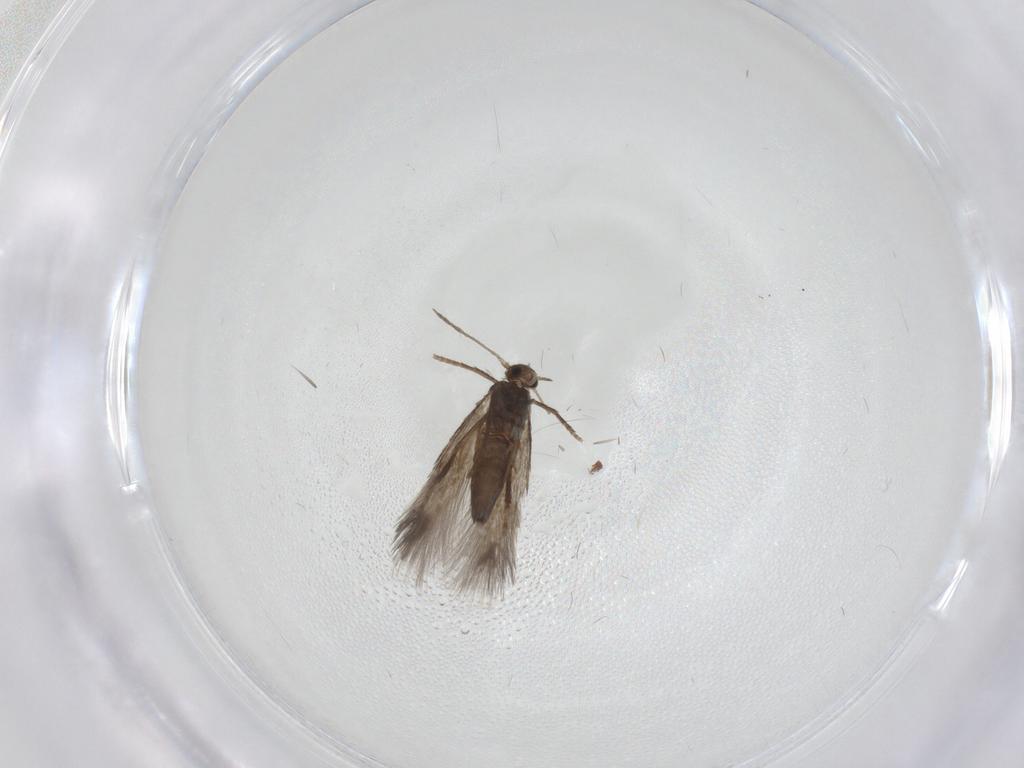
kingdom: Animalia
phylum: Arthropoda
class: Insecta
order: Lepidoptera
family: Heliozelidae
